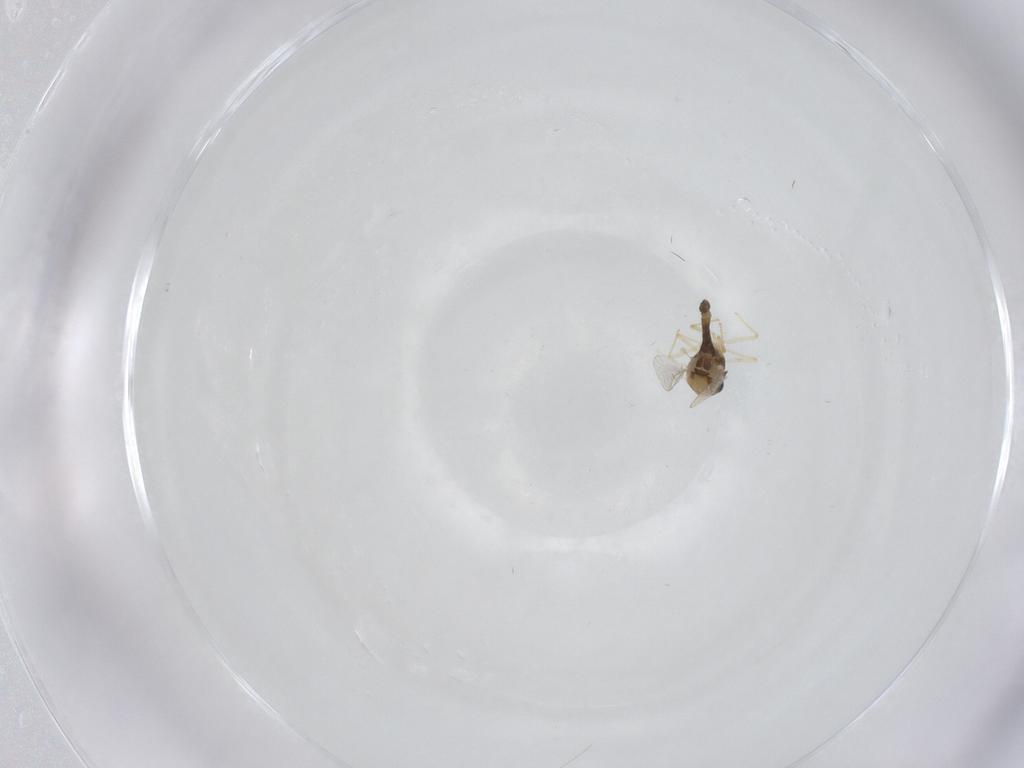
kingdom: Animalia
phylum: Arthropoda
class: Insecta
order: Diptera
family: Chironomidae
